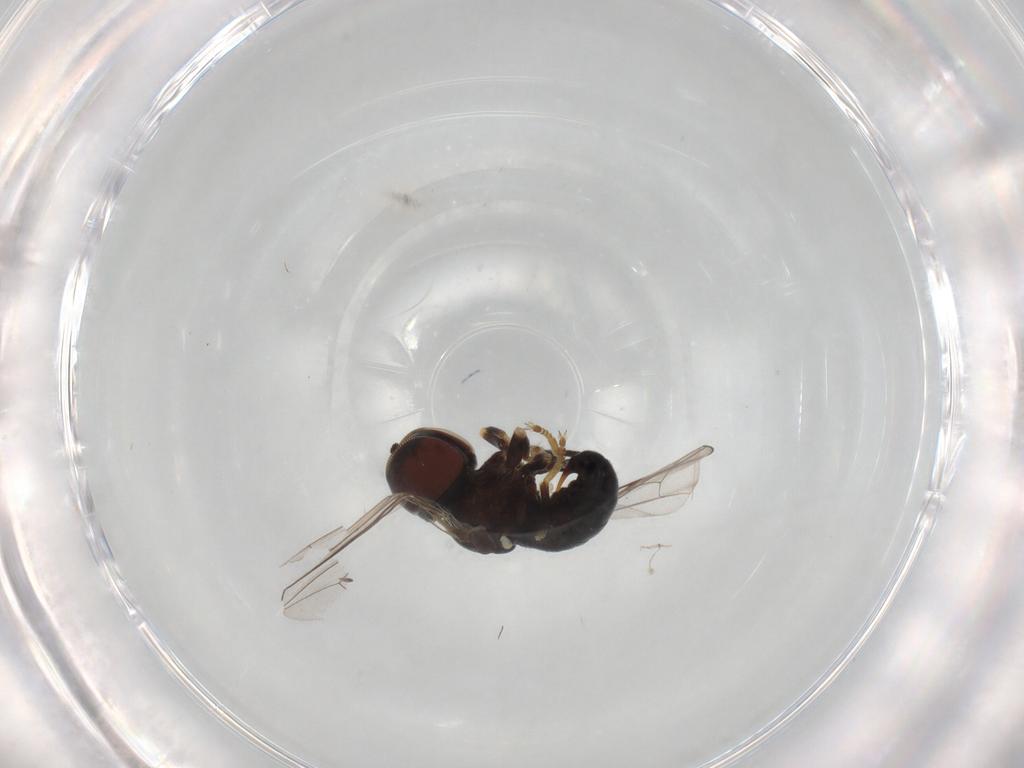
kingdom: Animalia
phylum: Arthropoda
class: Insecta
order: Diptera
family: Pipunculidae
